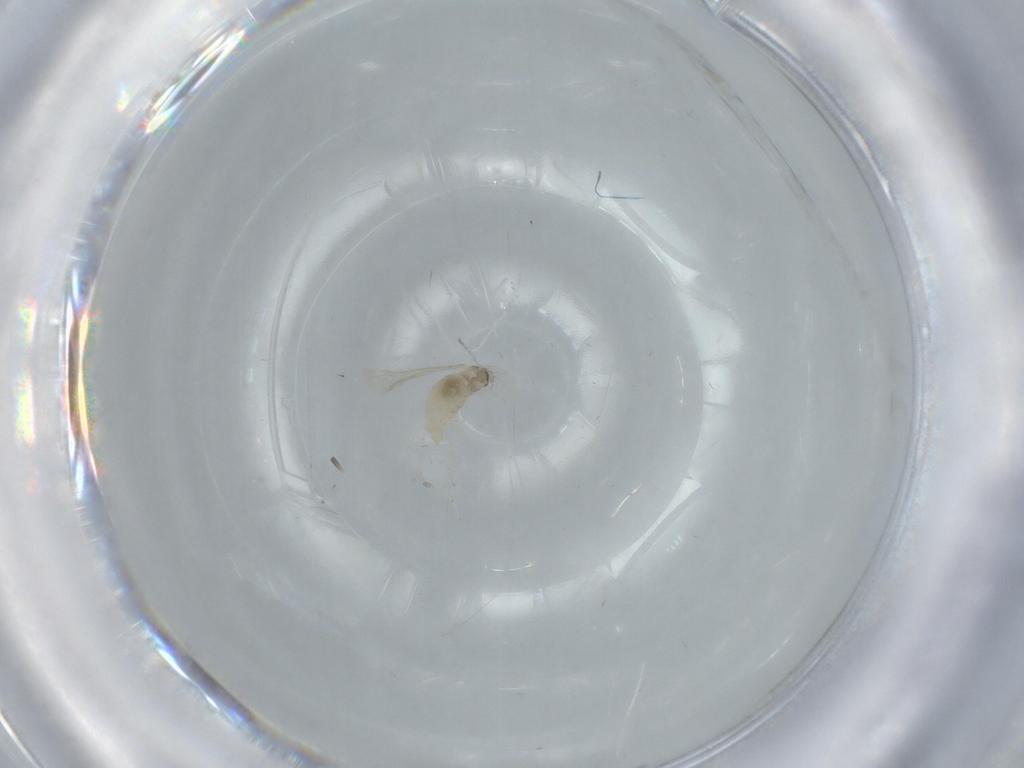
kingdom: Animalia
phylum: Arthropoda
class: Insecta
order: Diptera
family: Cecidomyiidae
